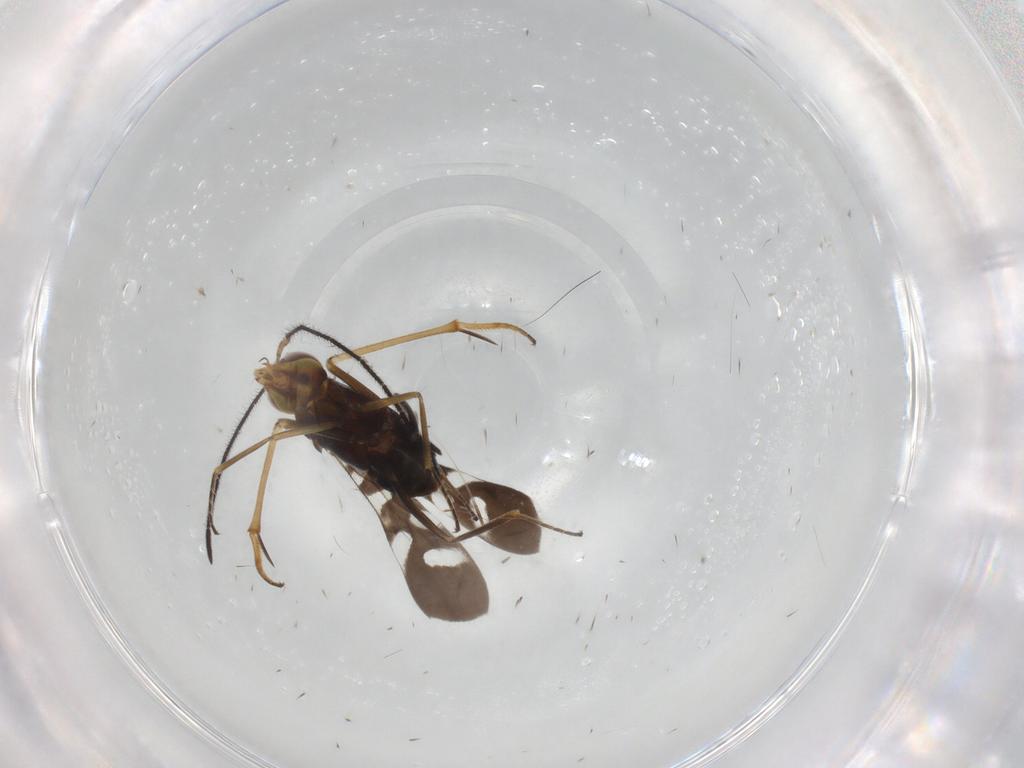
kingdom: Animalia
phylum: Arthropoda
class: Insecta
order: Hymenoptera
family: Encyrtidae
